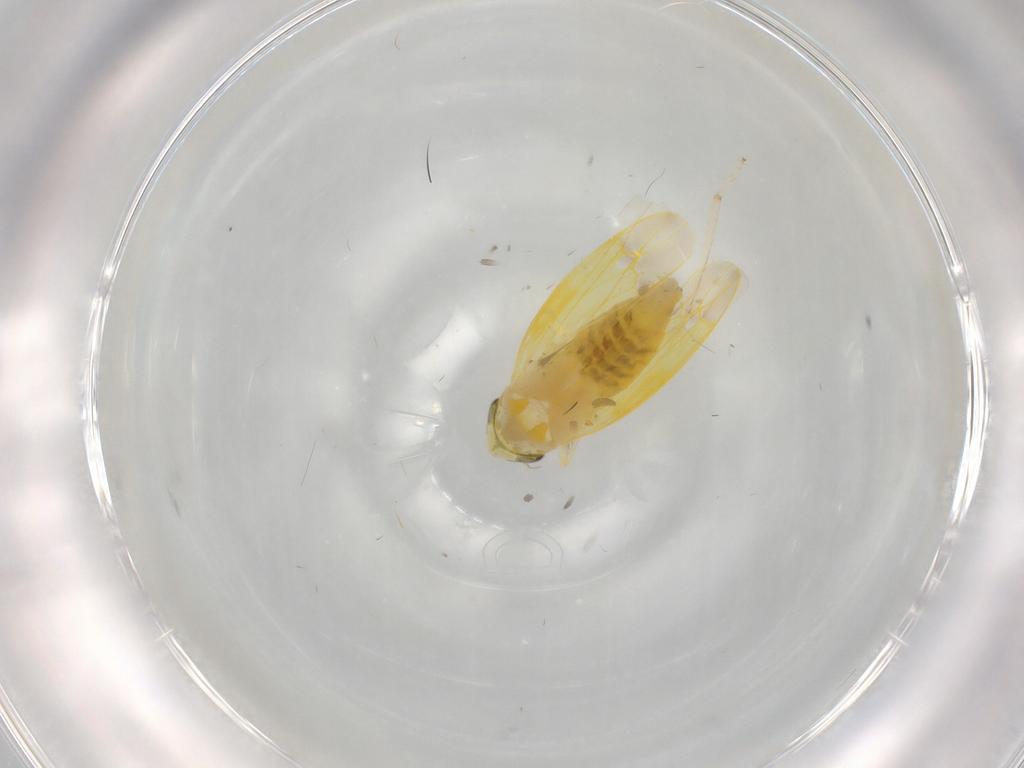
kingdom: Animalia
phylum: Arthropoda
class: Insecta
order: Hemiptera
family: Cicadellidae
